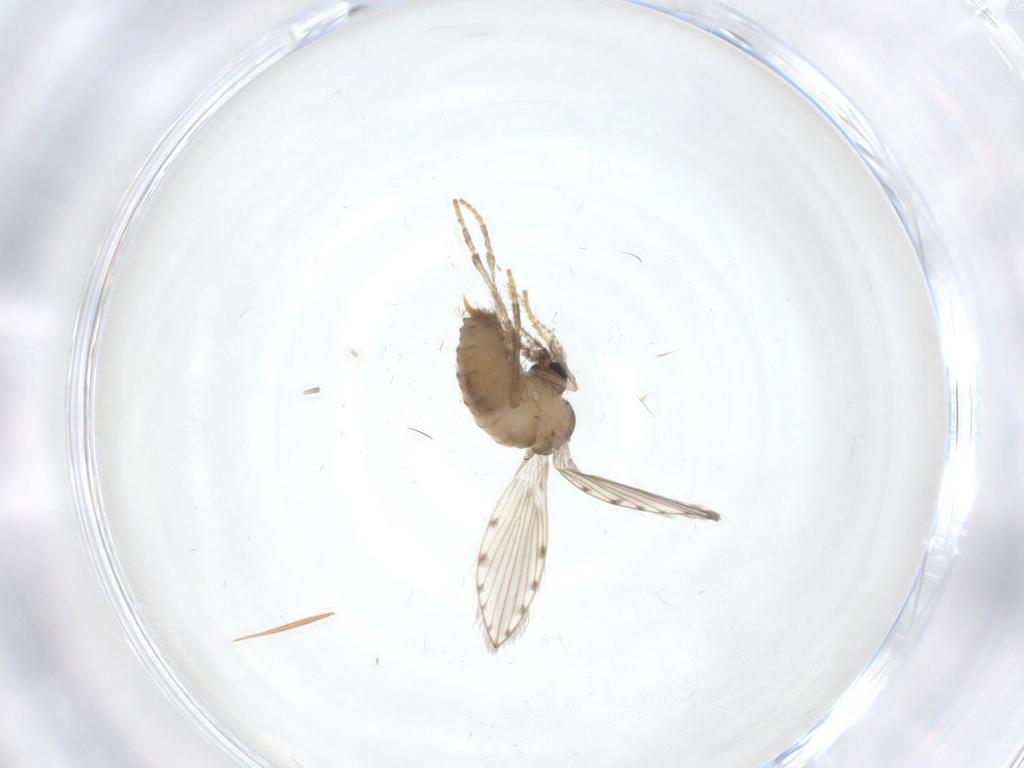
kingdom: Animalia
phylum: Arthropoda
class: Insecta
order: Diptera
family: Psychodidae
